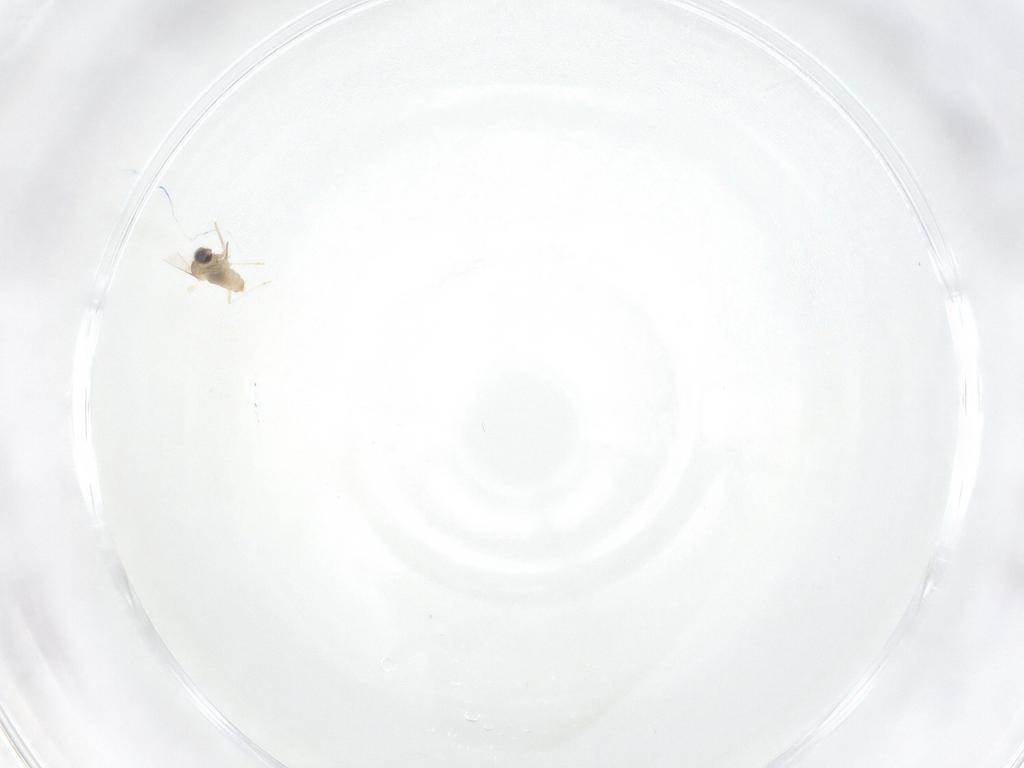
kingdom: Animalia
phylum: Arthropoda
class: Insecta
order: Diptera
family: Cecidomyiidae
